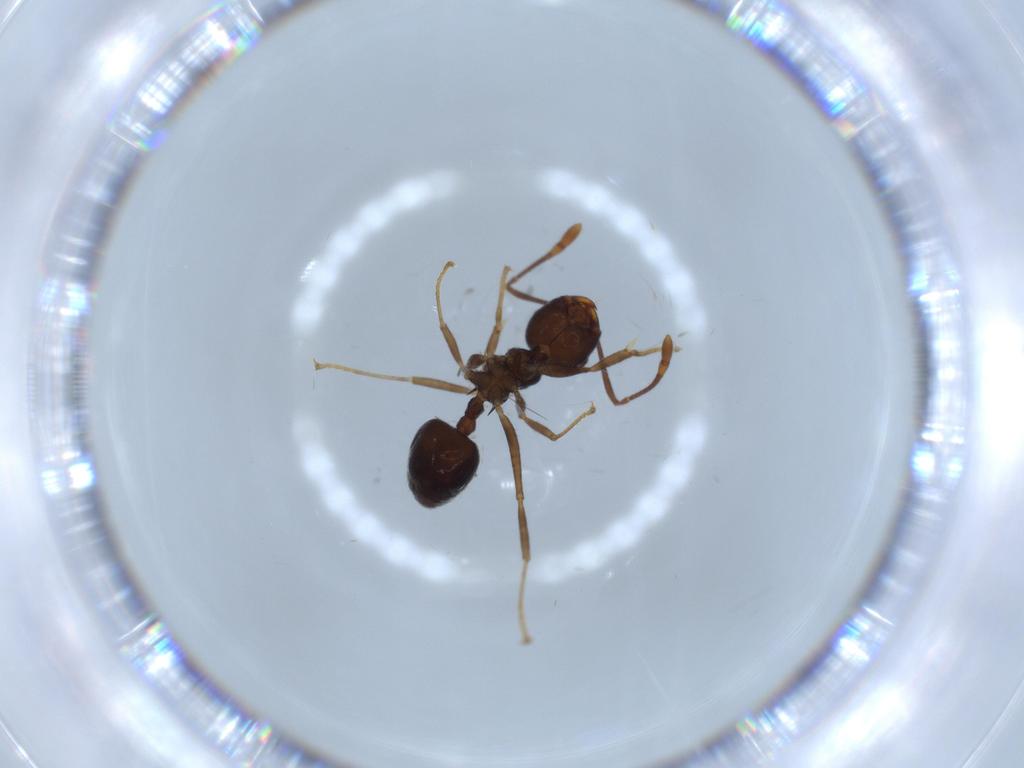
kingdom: Animalia
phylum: Arthropoda
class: Insecta
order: Hymenoptera
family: Formicidae
